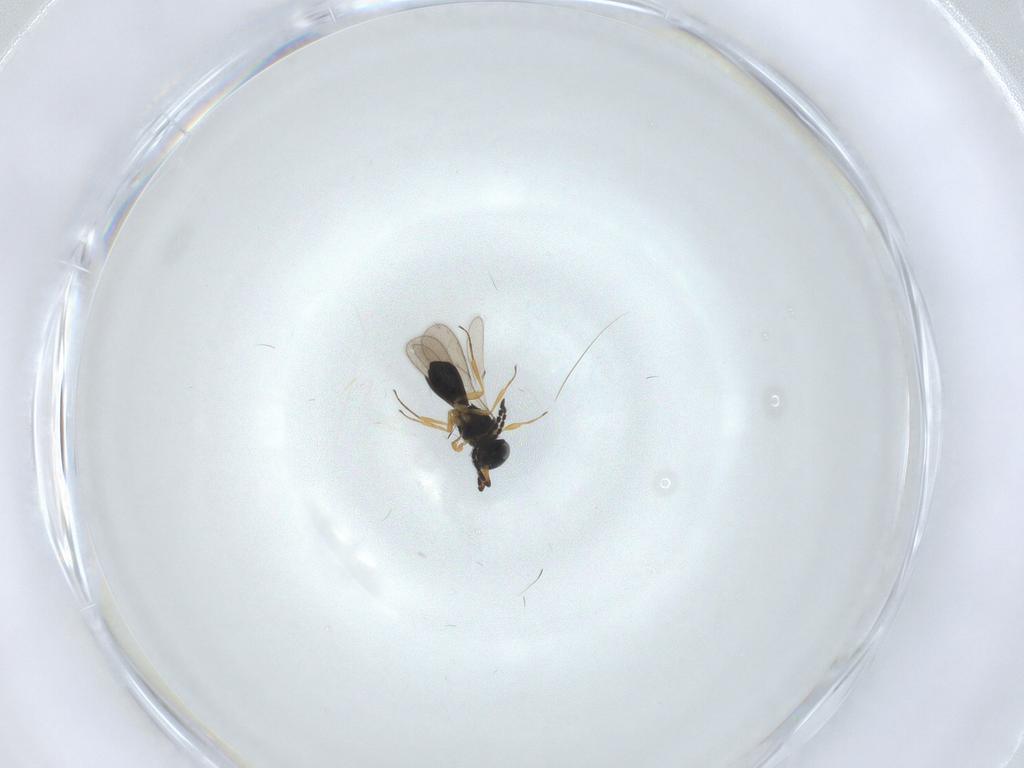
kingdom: Animalia
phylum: Arthropoda
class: Insecta
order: Hymenoptera
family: Scelionidae
